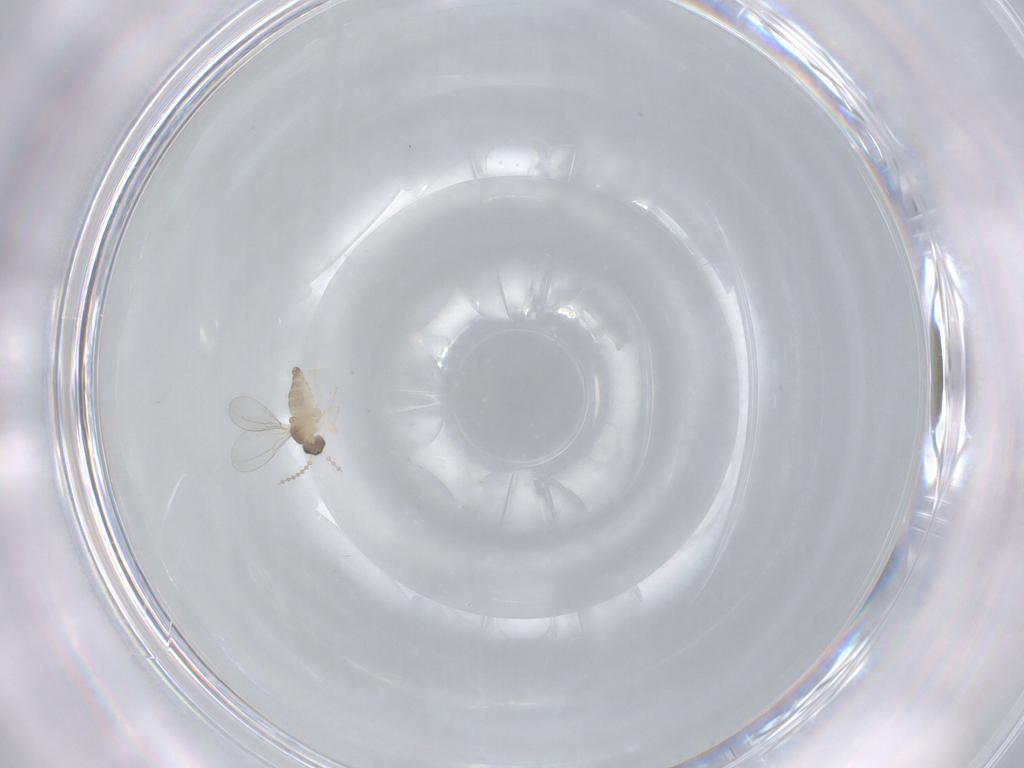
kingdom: Animalia
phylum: Arthropoda
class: Insecta
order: Diptera
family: Cecidomyiidae
